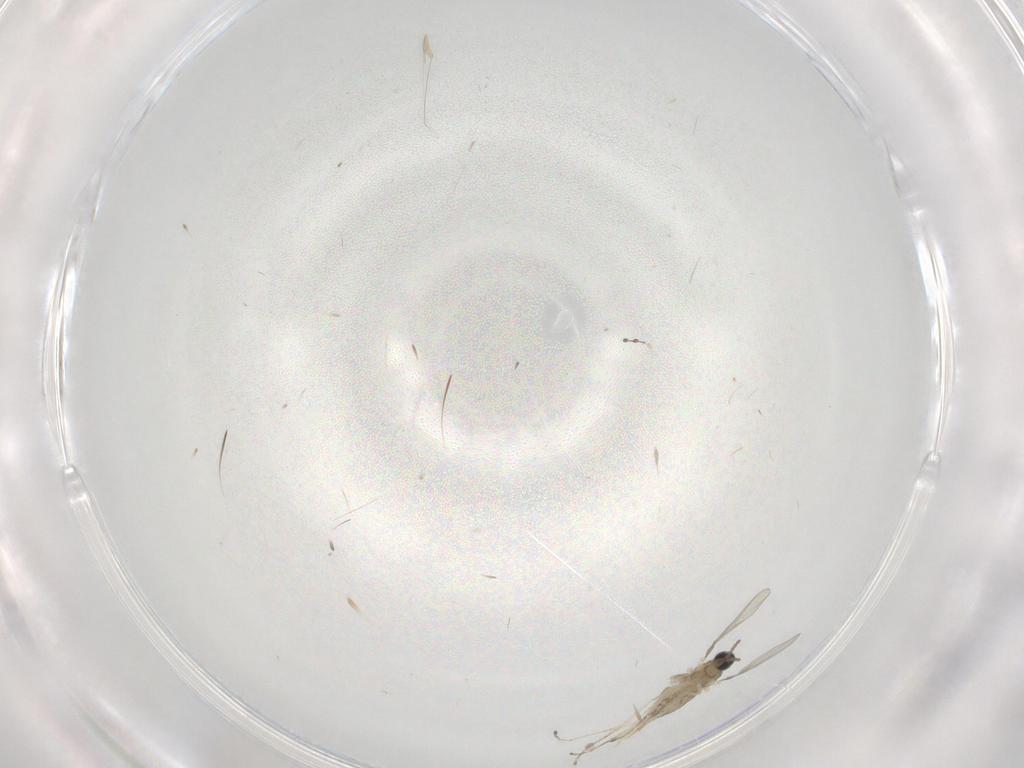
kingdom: Animalia
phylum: Arthropoda
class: Insecta
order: Diptera
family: Cecidomyiidae
